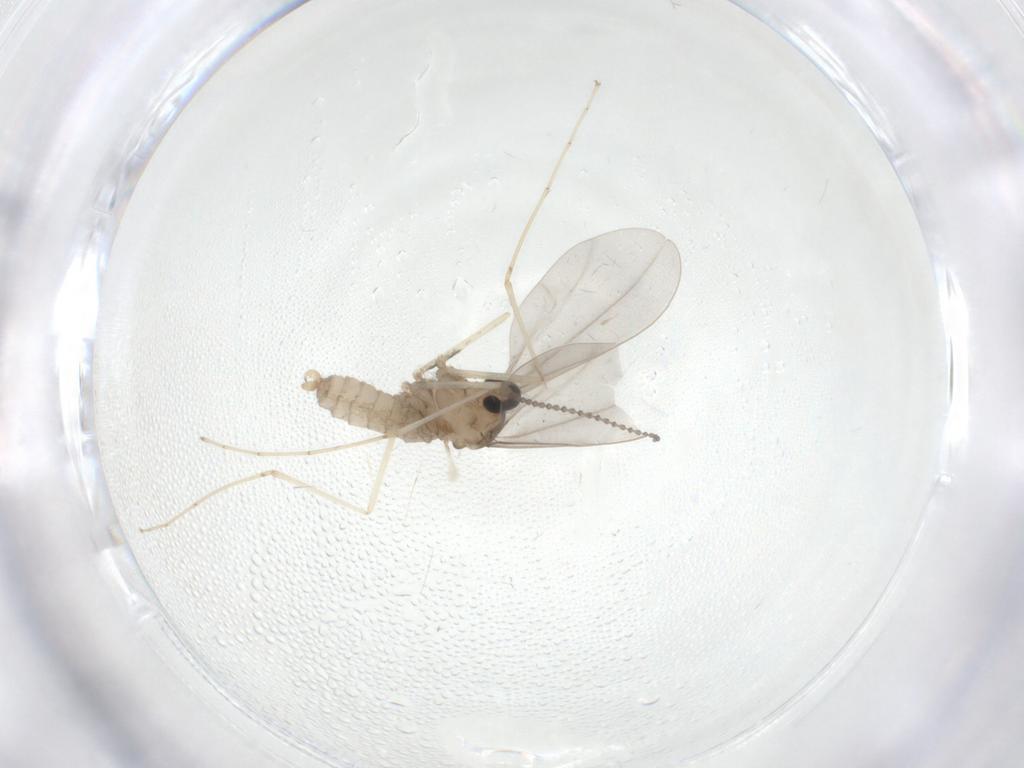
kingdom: Animalia
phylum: Arthropoda
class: Insecta
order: Diptera
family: Cecidomyiidae
